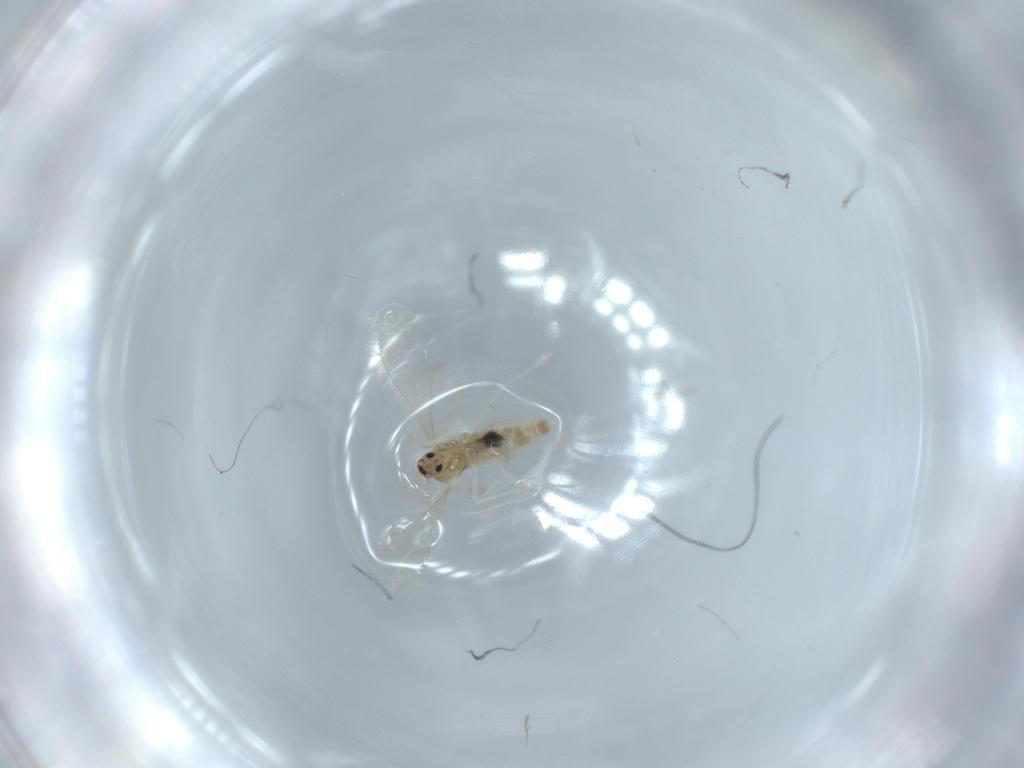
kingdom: Animalia
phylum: Arthropoda
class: Insecta
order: Diptera
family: Cecidomyiidae
